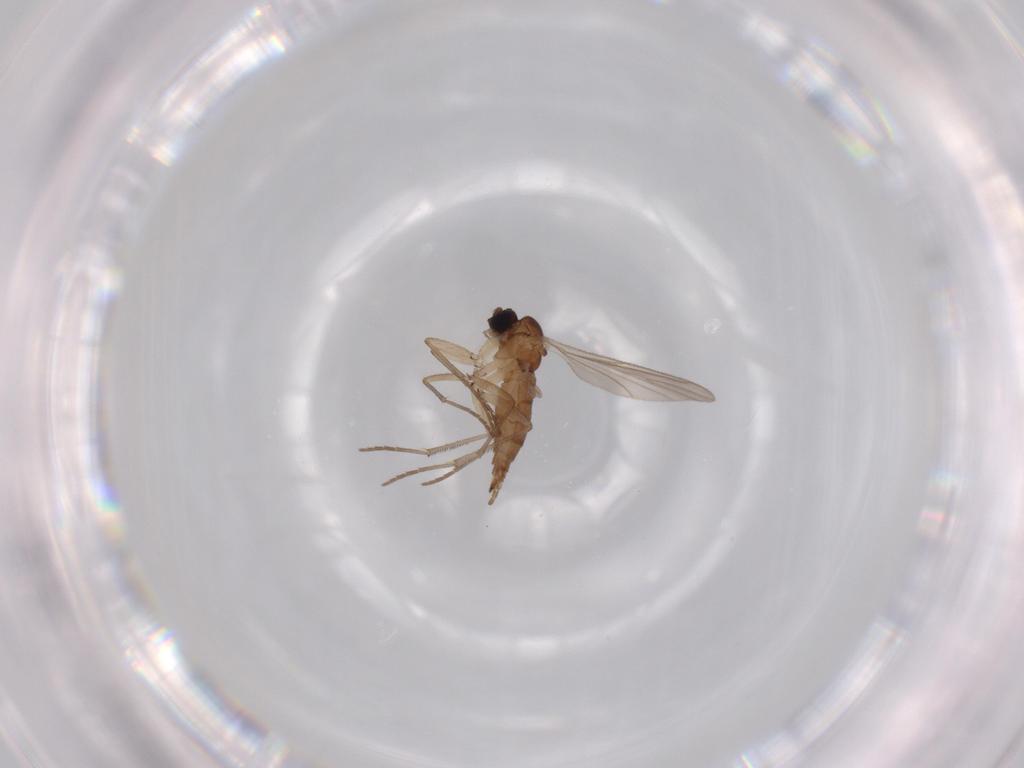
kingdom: Animalia
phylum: Arthropoda
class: Insecta
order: Diptera
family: Sciaridae
